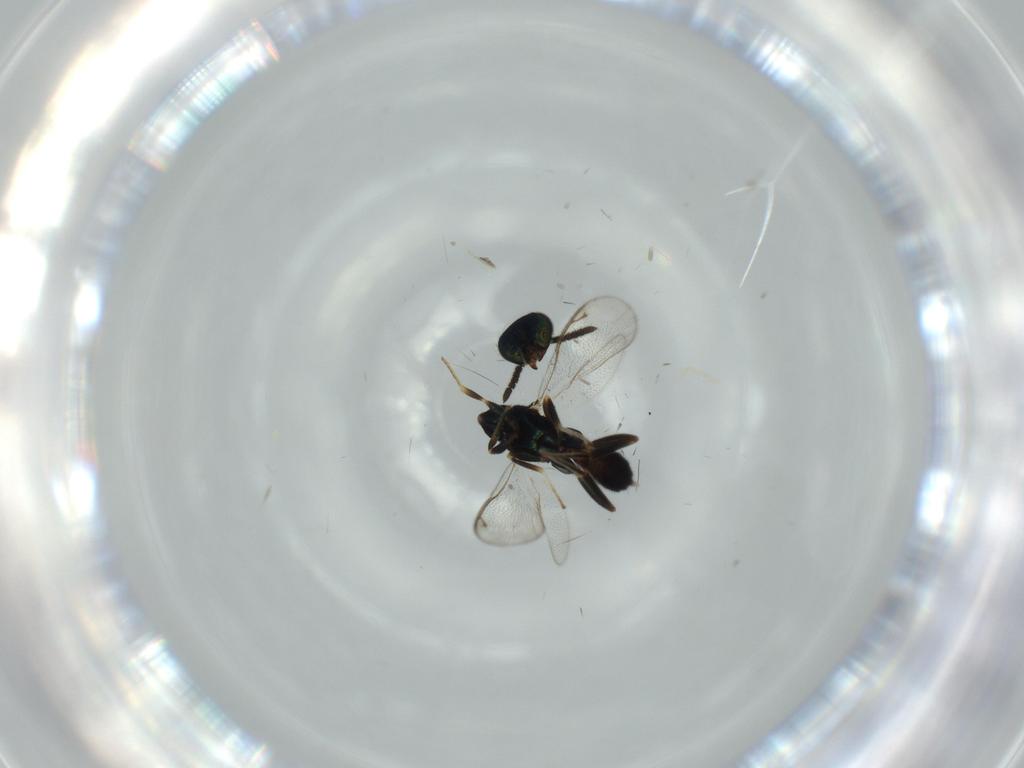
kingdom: Animalia
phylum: Arthropoda
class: Insecta
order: Hymenoptera
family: Cleonyminae
